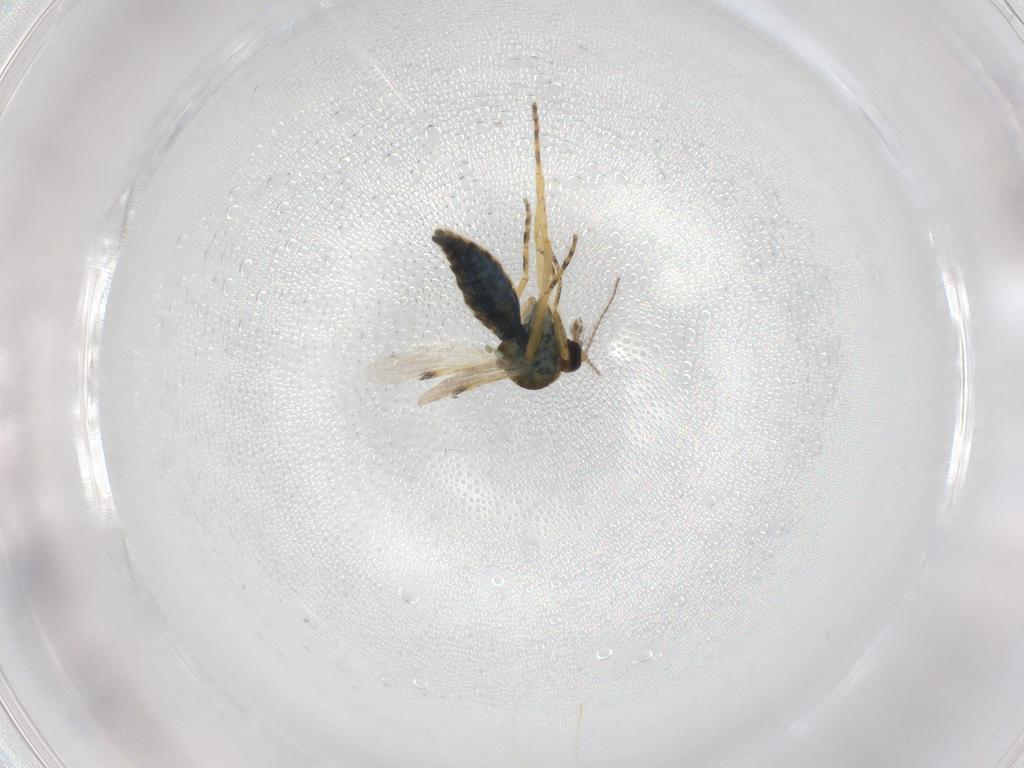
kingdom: Animalia
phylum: Arthropoda
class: Insecta
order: Diptera
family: Ceratopogonidae
